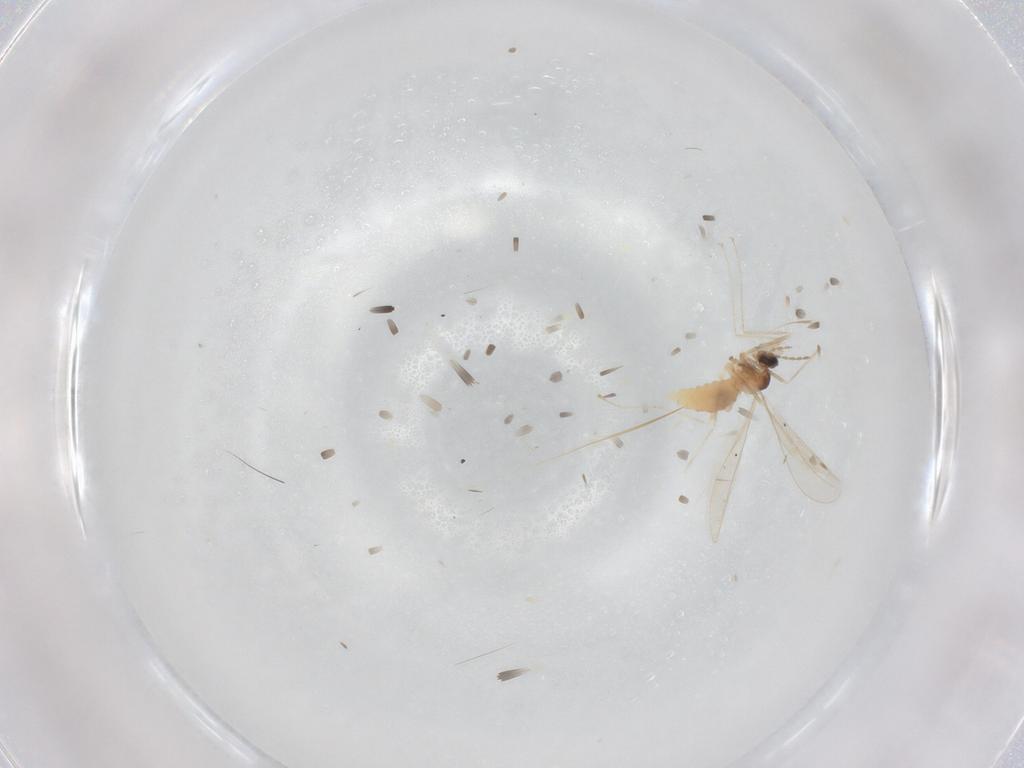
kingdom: Animalia
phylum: Arthropoda
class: Insecta
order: Diptera
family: Cecidomyiidae
